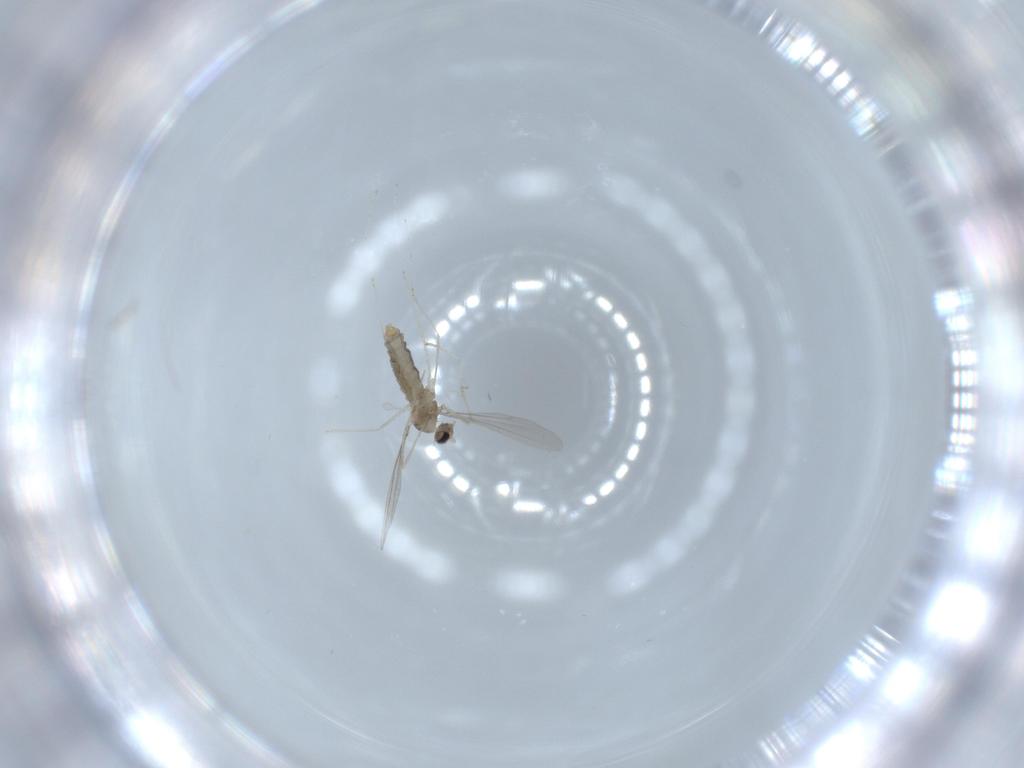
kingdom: Animalia
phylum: Arthropoda
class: Insecta
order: Diptera
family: Cecidomyiidae
